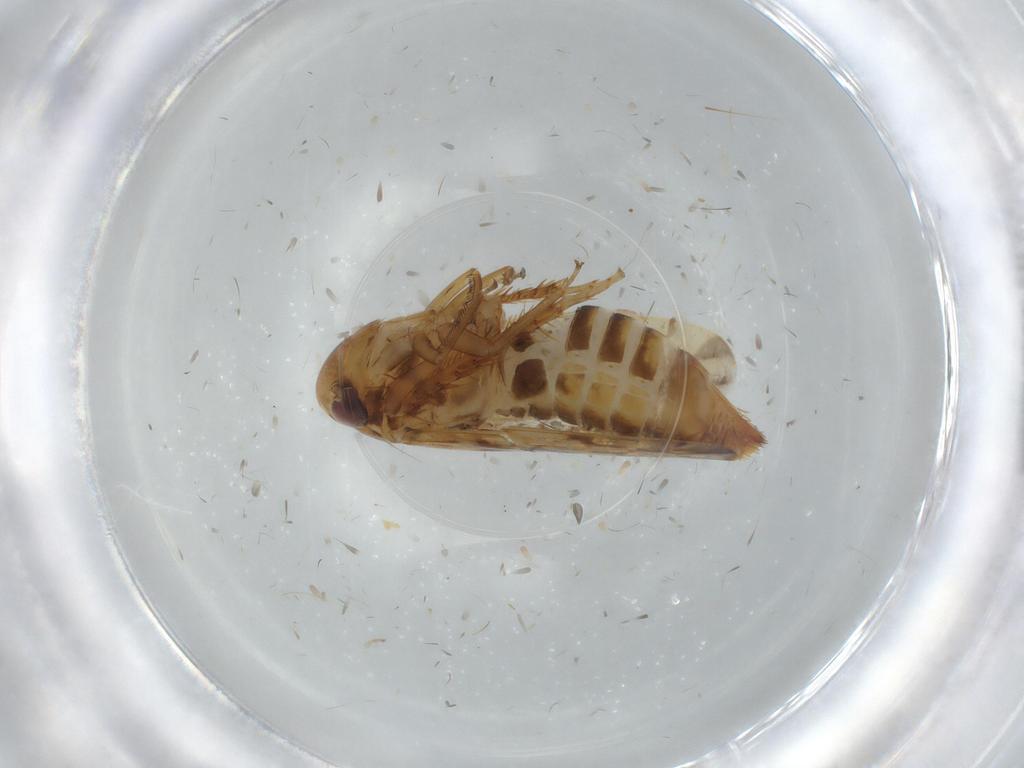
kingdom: Animalia
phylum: Arthropoda
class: Insecta
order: Hemiptera
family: Cicadellidae
